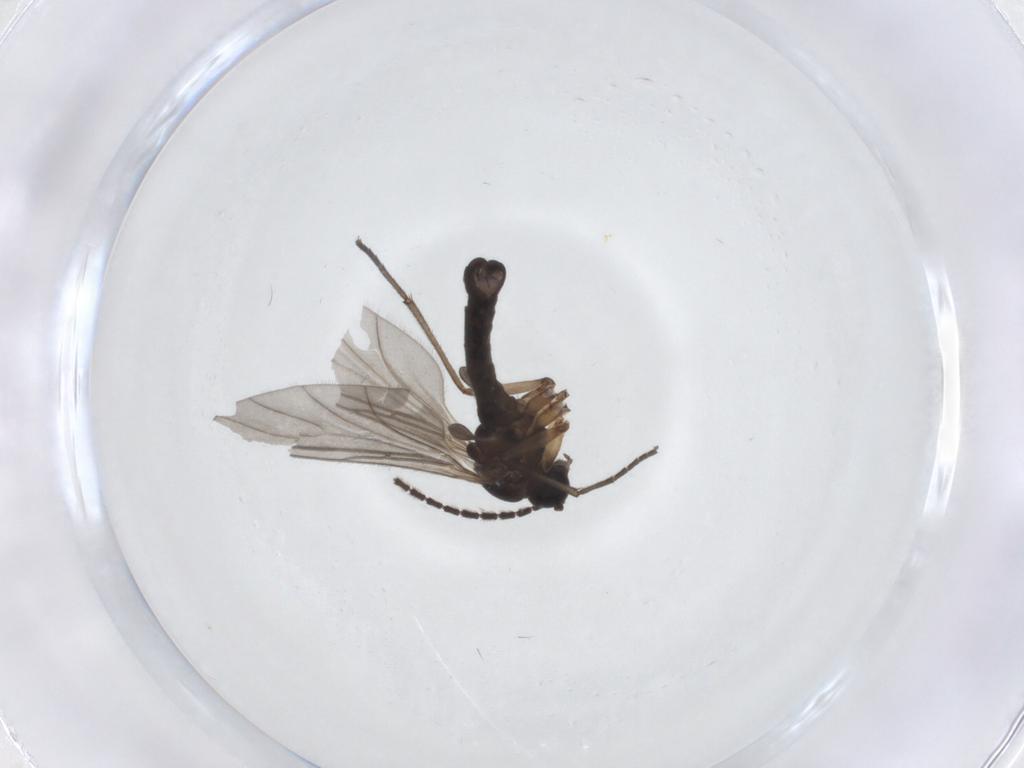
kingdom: Animalia
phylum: Arthropoda
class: Insecta
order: Diptera
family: Sciaridae
